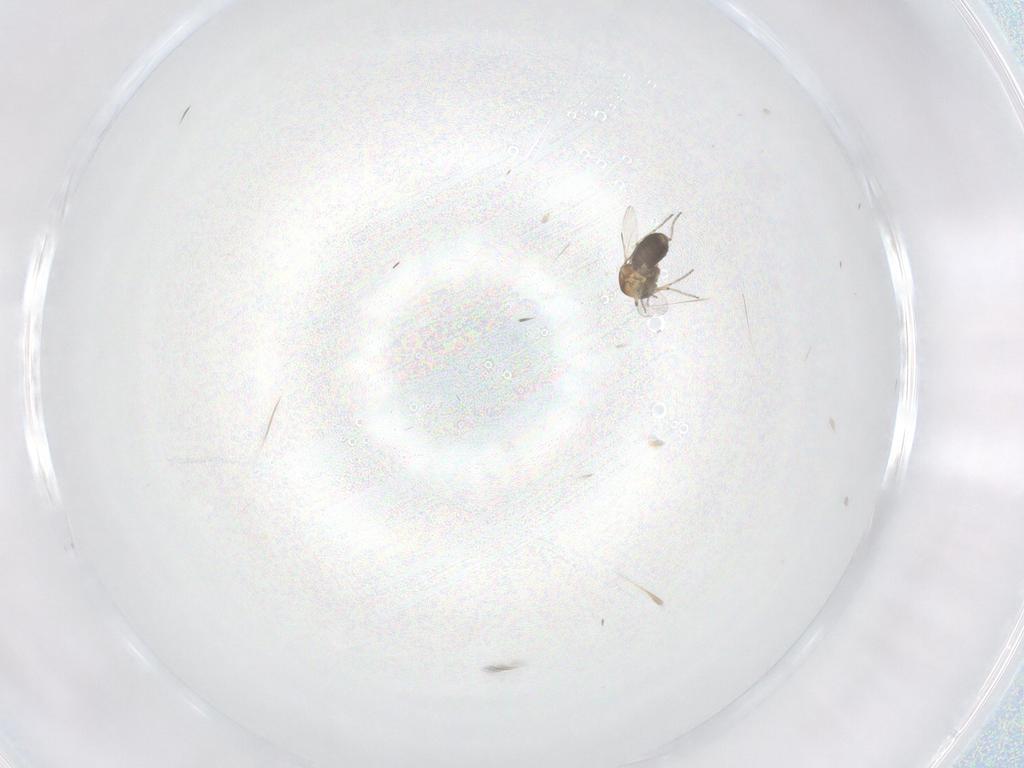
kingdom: Animalia
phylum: Arthropoda
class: Insecta
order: Diptera
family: Ceratopogonidae
